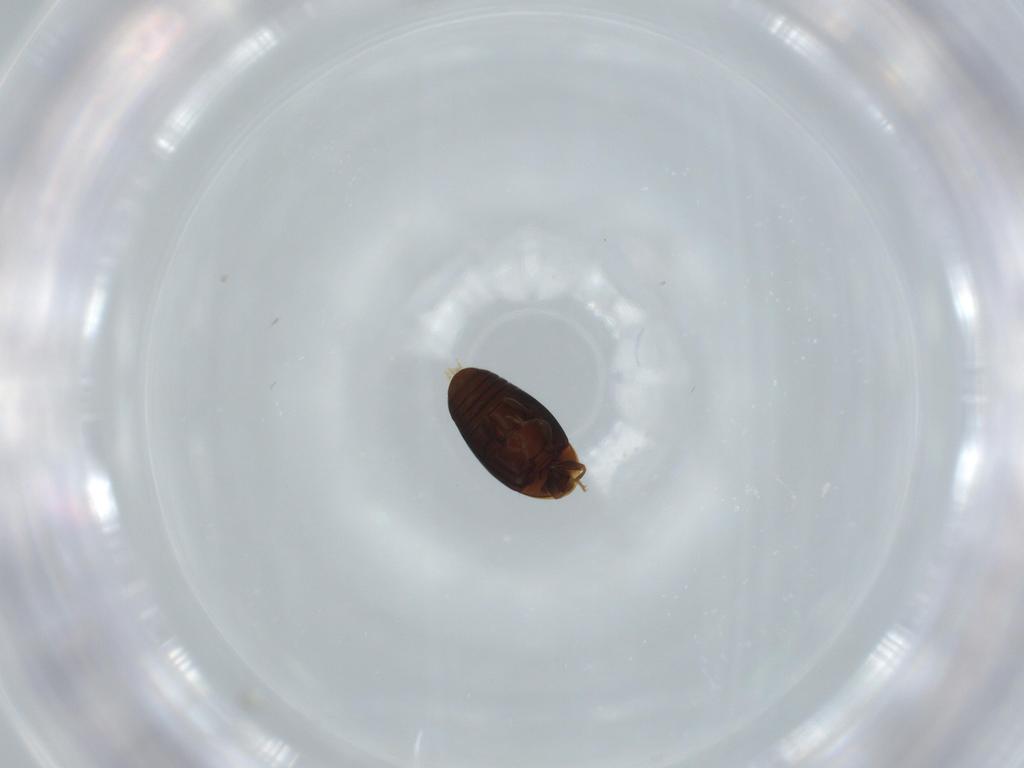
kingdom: Animalia
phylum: Arthropoda
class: Insecta
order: Coleoptera
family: Corylophidae
